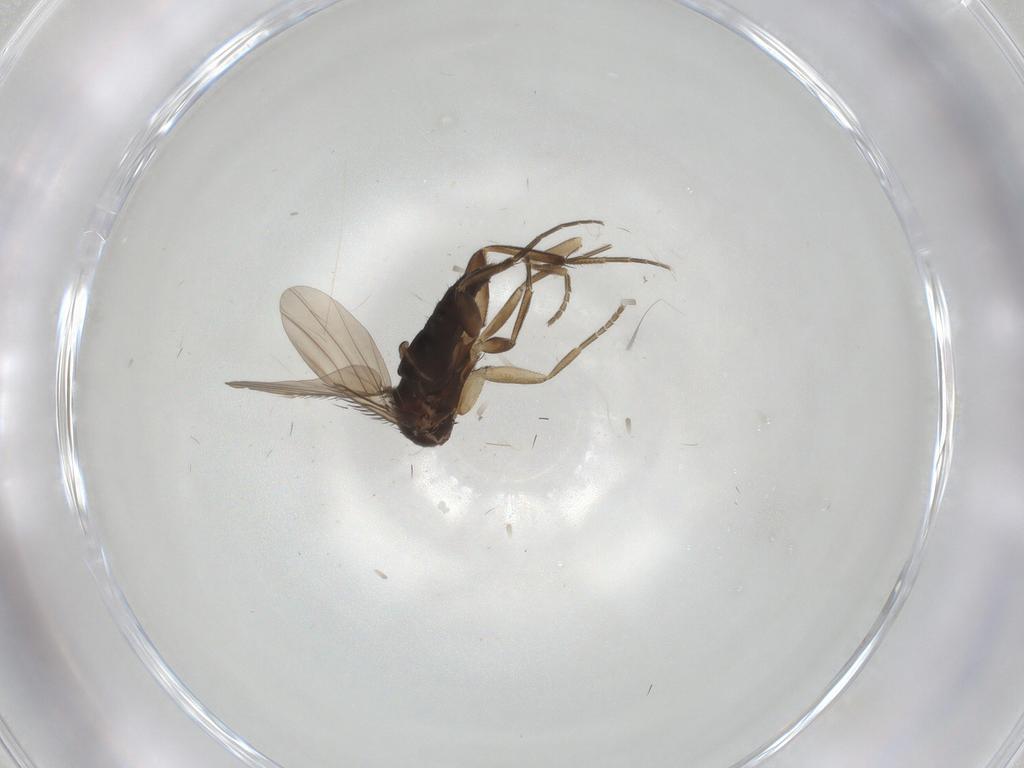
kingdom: Animalia
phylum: Arthropoda
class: Insecta
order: Diptera
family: Phoridae
